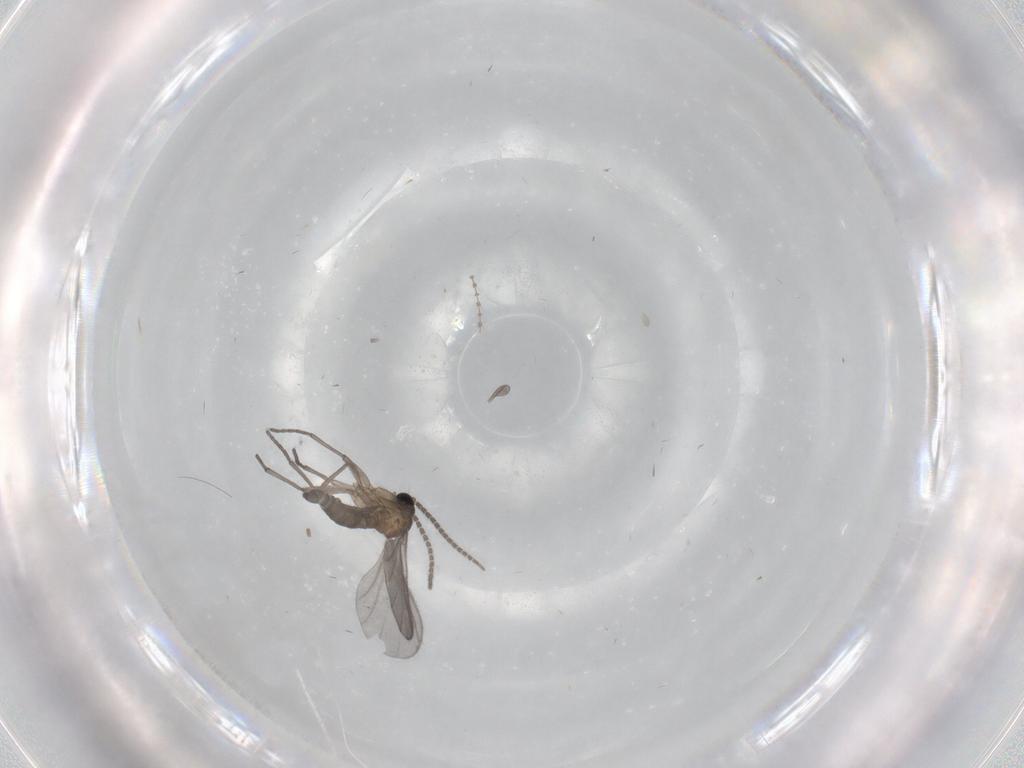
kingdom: Animalia
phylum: Arthropoda
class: Insecta
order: Diptera
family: Sciaridae
